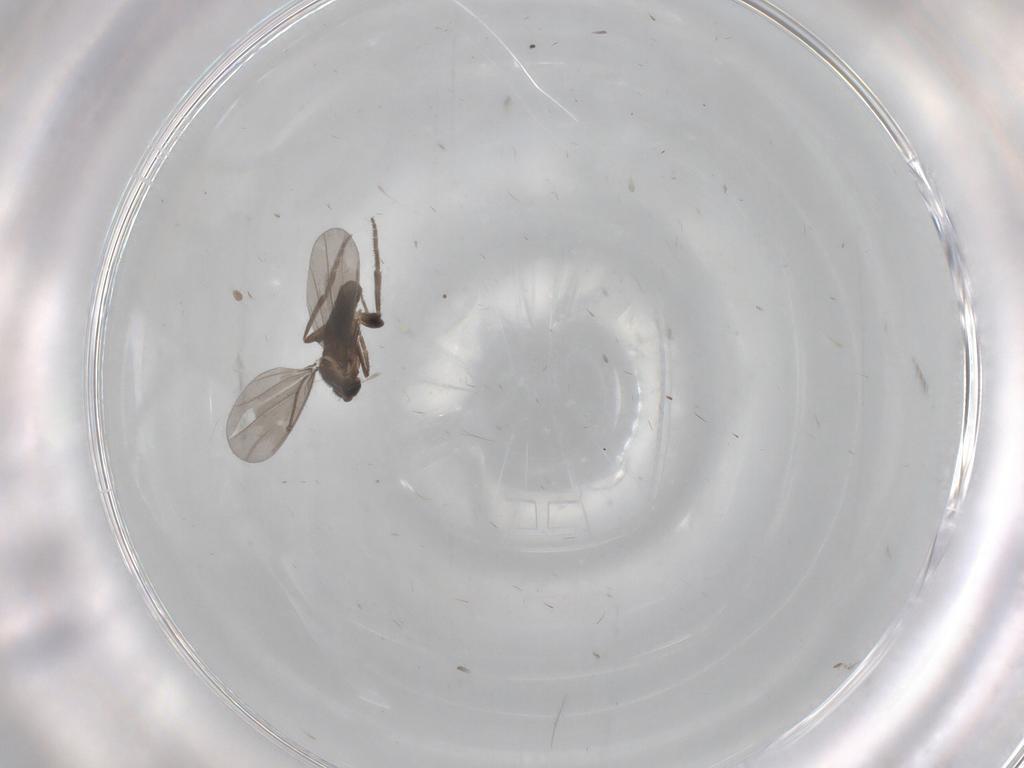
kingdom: Animalia
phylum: Arthropoda
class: Insecta
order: Diptera
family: Phoridae
